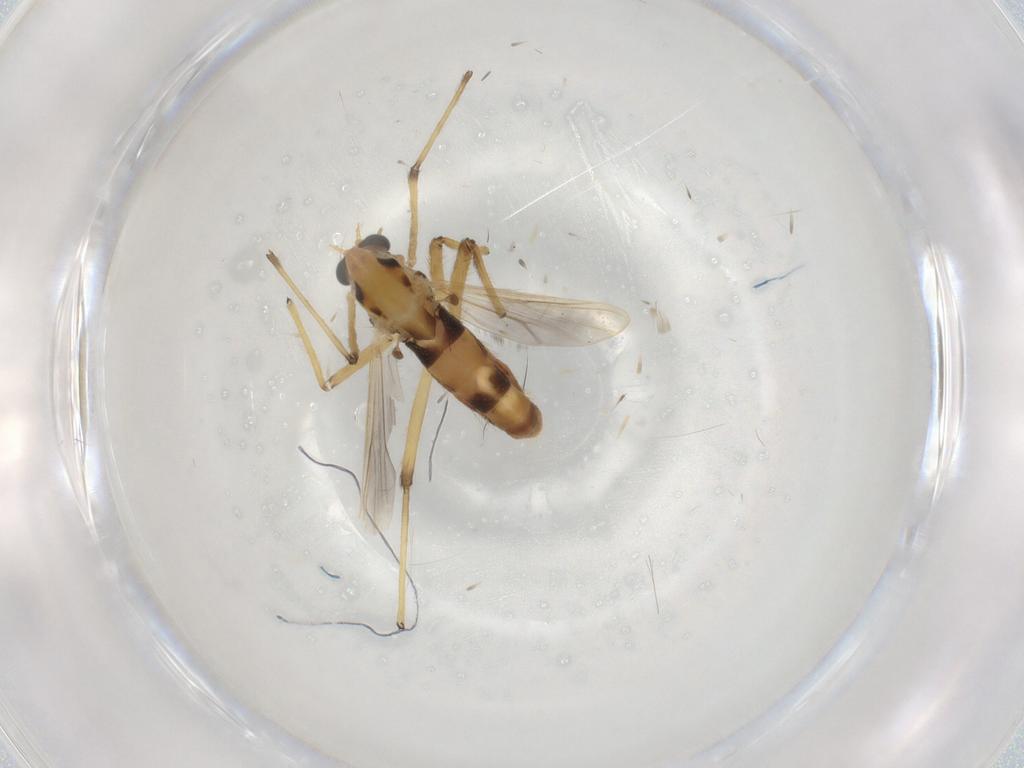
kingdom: Animalia
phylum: Arthropoda
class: Insecta
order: Diptera
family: Chironomidae
